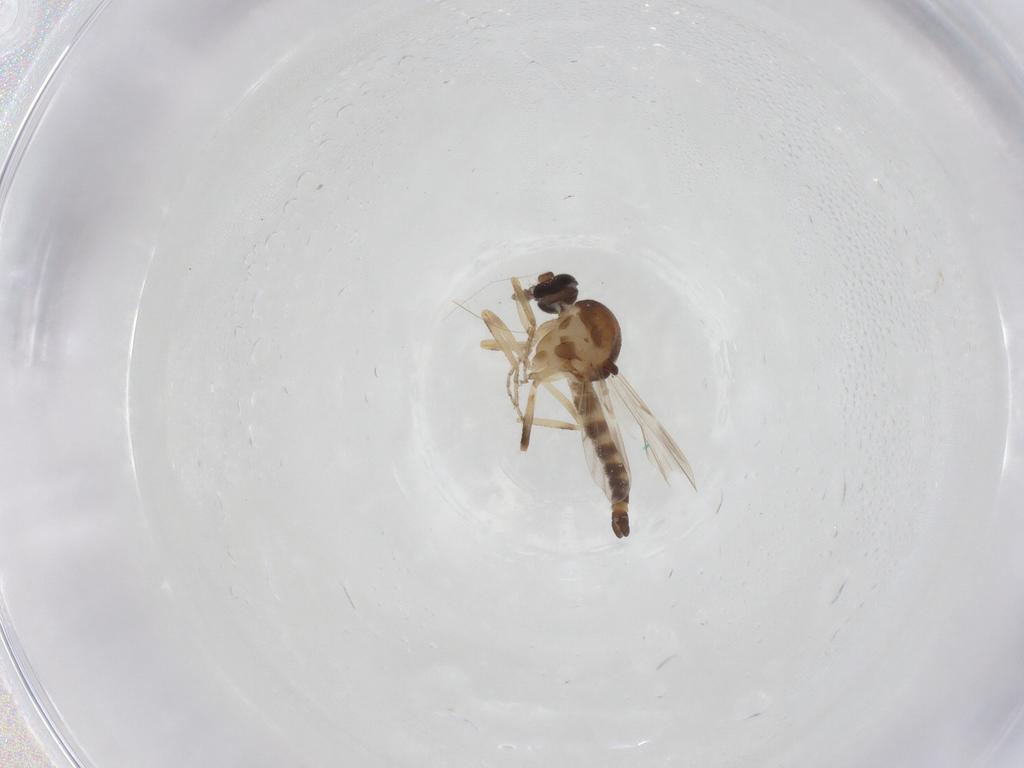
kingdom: Animalia
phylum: Arthropoda
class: Insecta
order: Diptera
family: Ceratopogonidae
